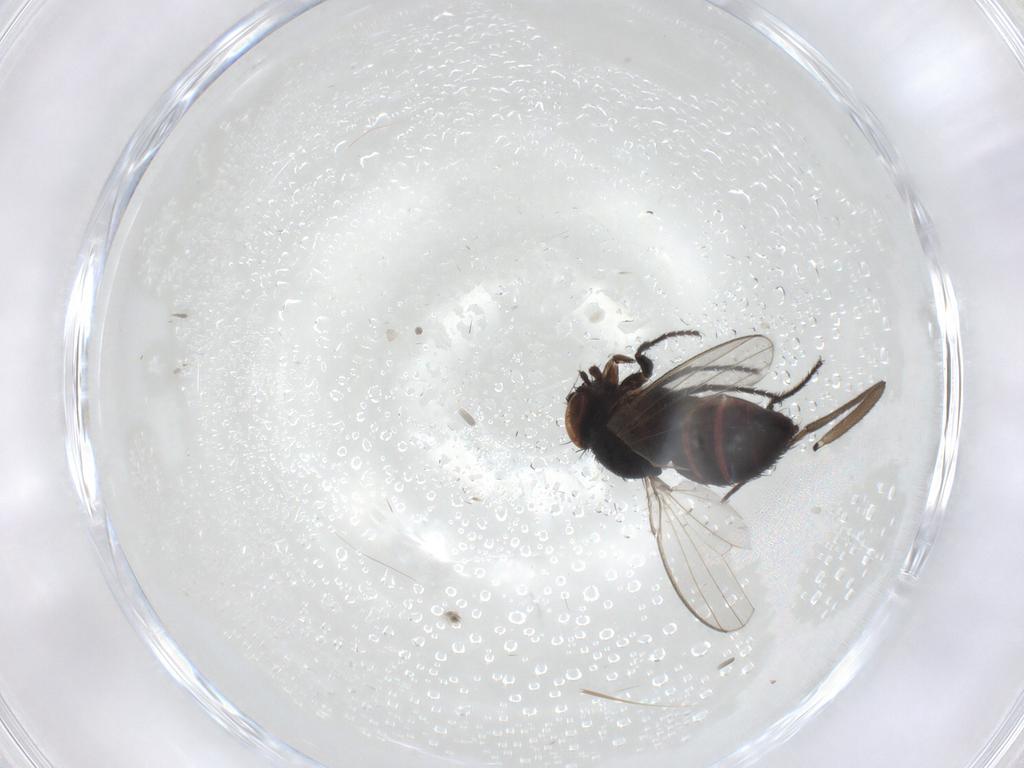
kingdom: Animalia
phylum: Arthropoda
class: Insecta
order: Diptera
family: Milichiidae
